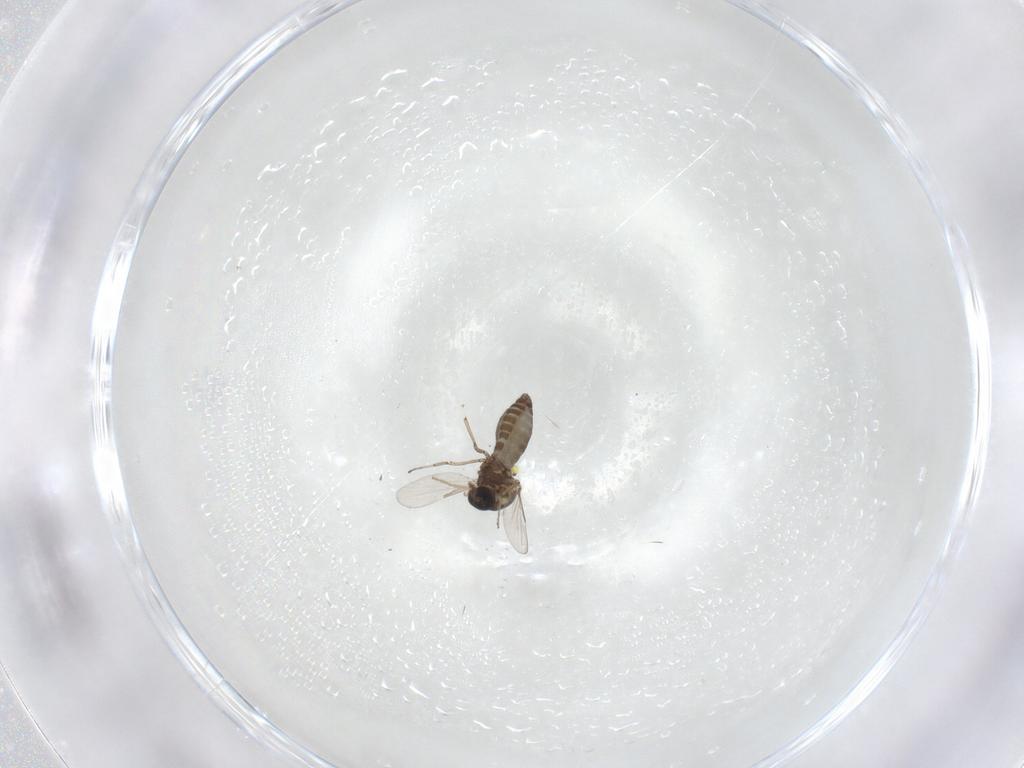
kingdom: Animalia
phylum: Arthropoda
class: Insecta
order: Diptera
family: Ceratopogonidae
